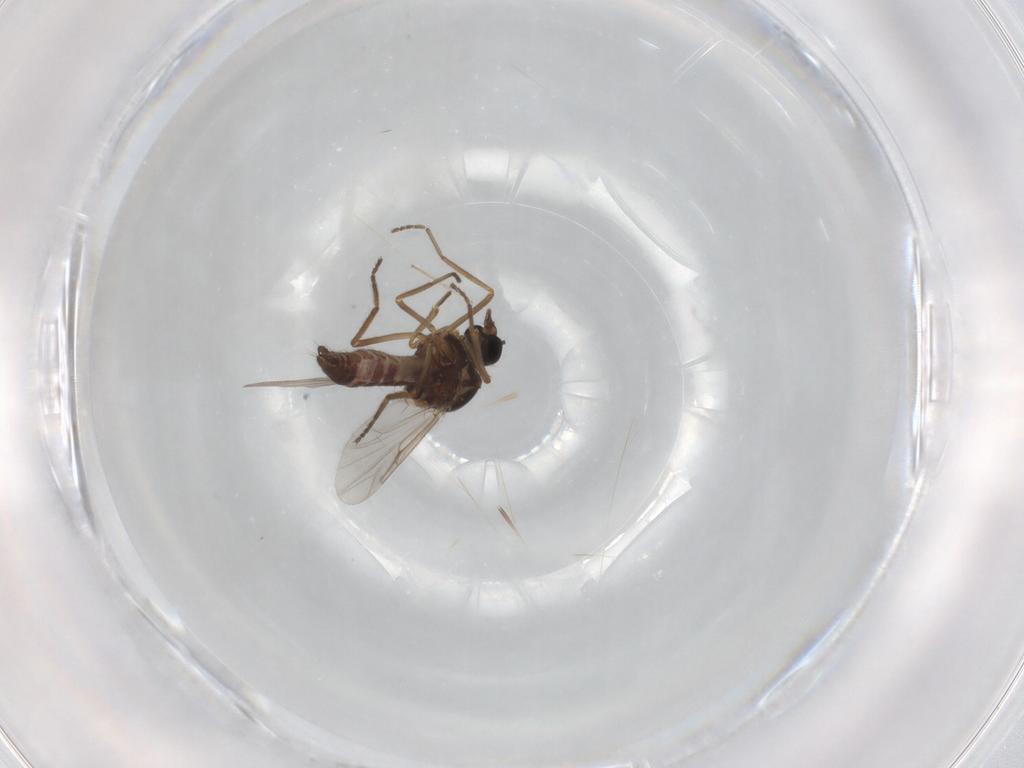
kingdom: Animalia
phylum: Arthropoda
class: Insecta
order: Diptera
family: Ceratopogonidae
